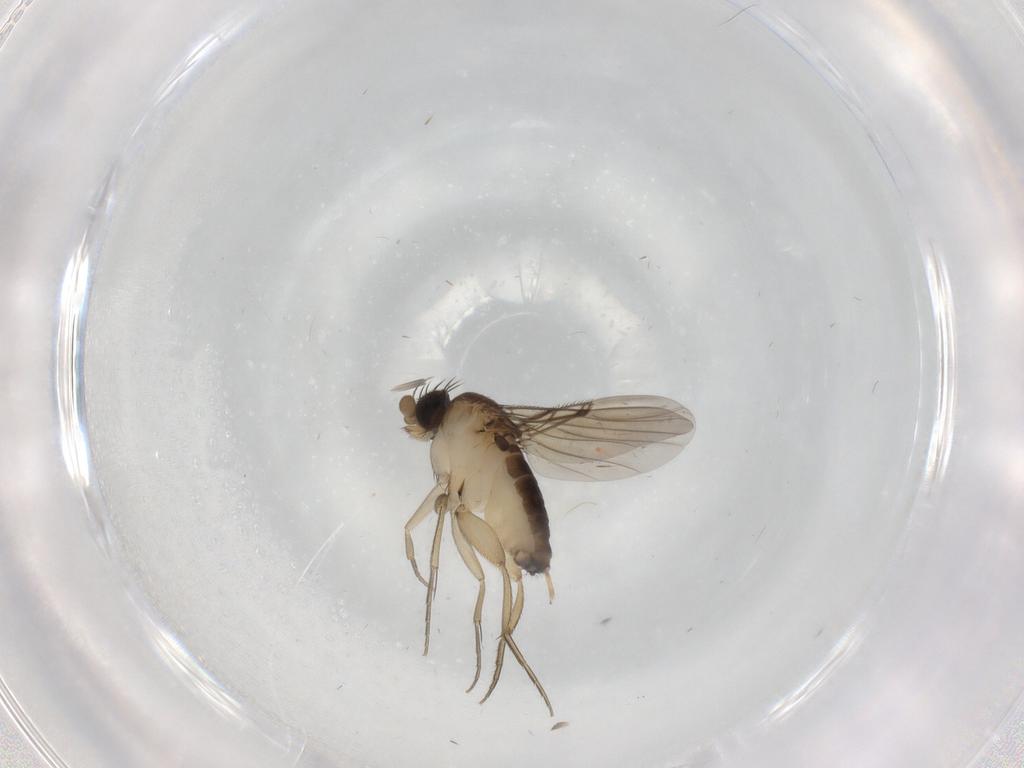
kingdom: Animalia
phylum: Arthropoda
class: Insecta
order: Diptera
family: Phoridae
